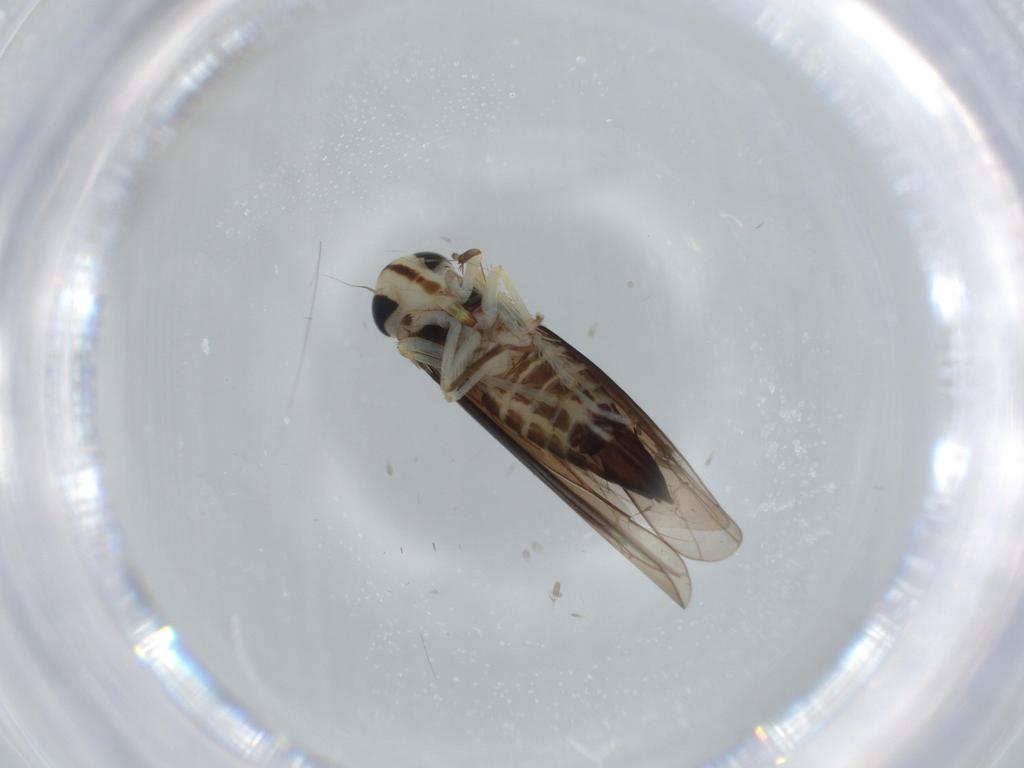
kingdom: Animalia
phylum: Arthropoda
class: Insecta
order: Hemiptera
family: Cicadellidae
